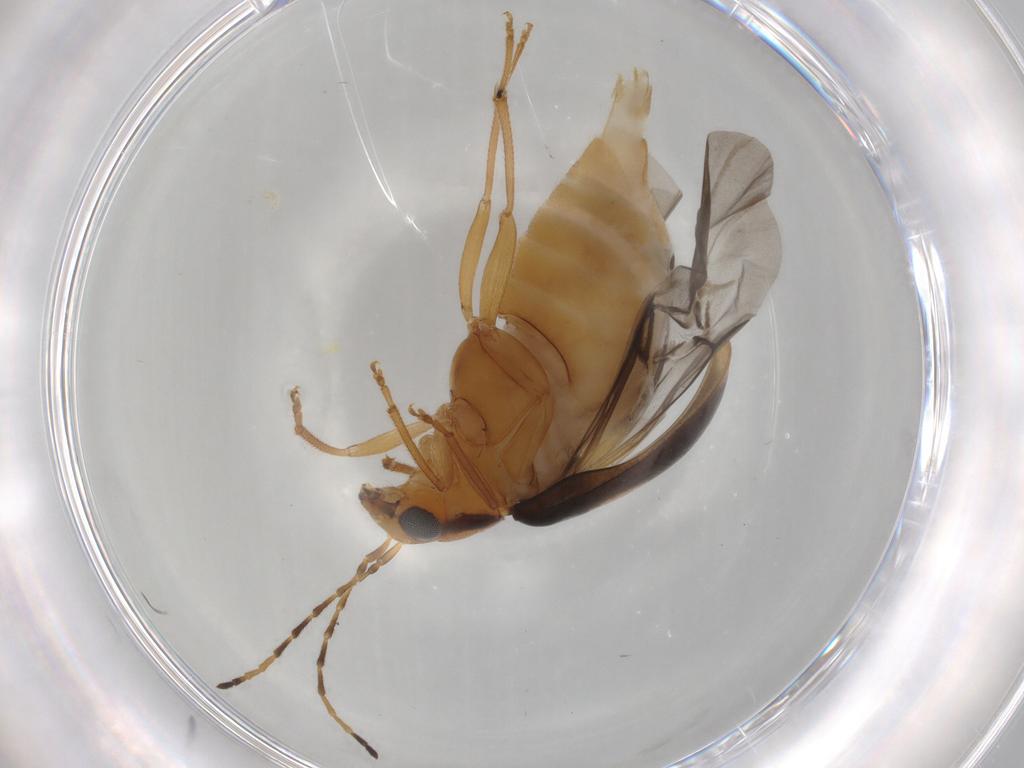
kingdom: Animalia
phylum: Arthropoda
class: Insecta
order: Coleoptera
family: Chrysomelidae
